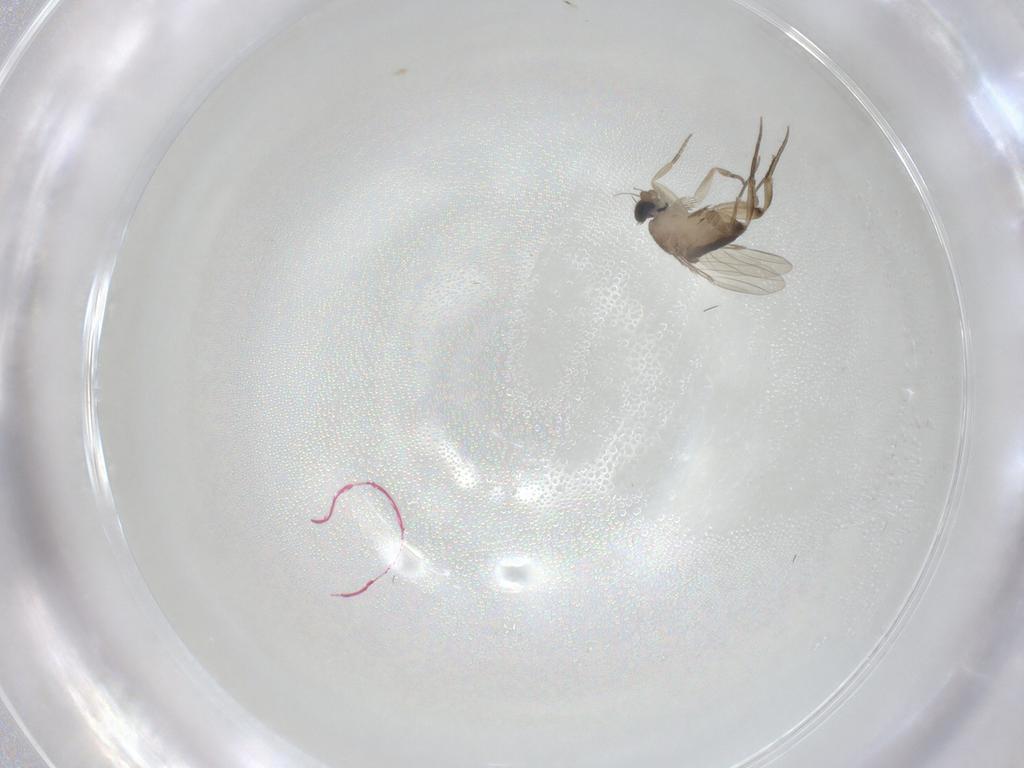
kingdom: Animalia
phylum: Arthropoda
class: Insecta
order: Diptera
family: Phoridae
